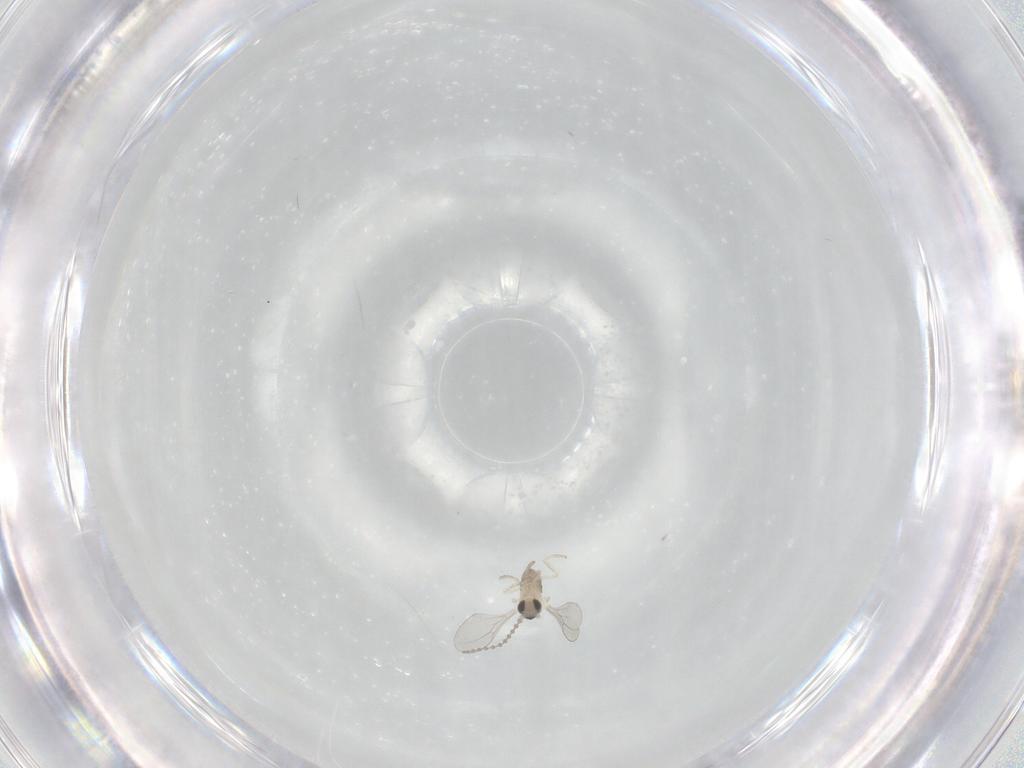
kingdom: Animalia
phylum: Arthropoda
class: Insecta
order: Diptera
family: Cecidomyiidae
